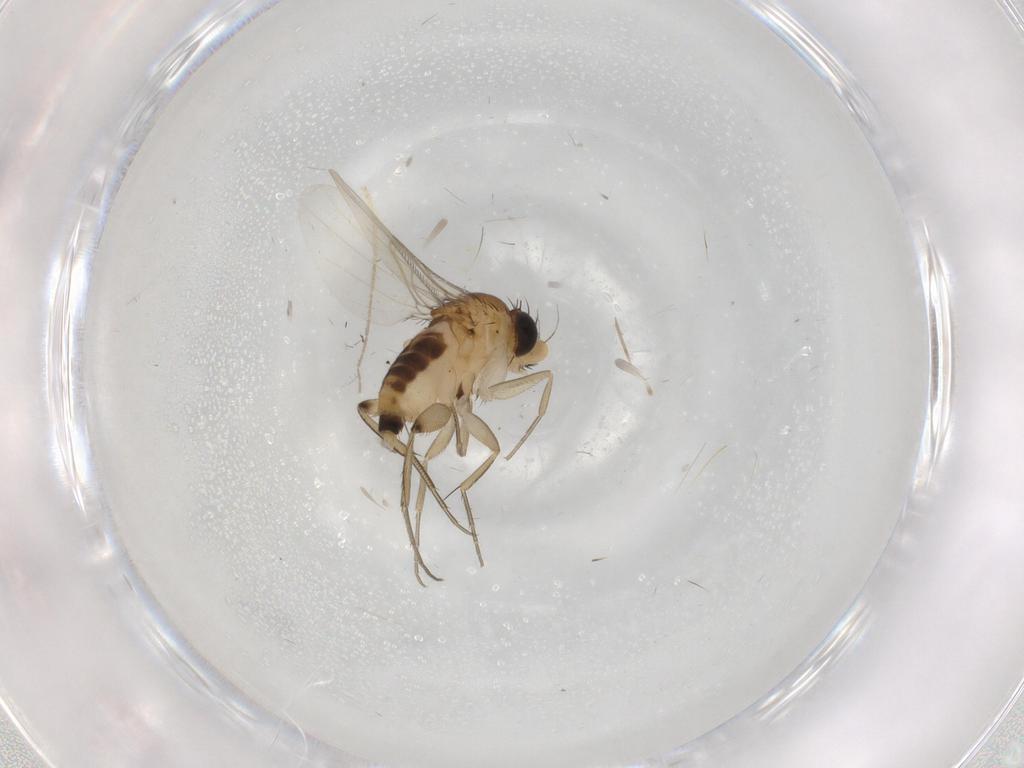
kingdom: Animalia
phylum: Arthropoda
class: Insecta
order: Diptera
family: Phoridae
